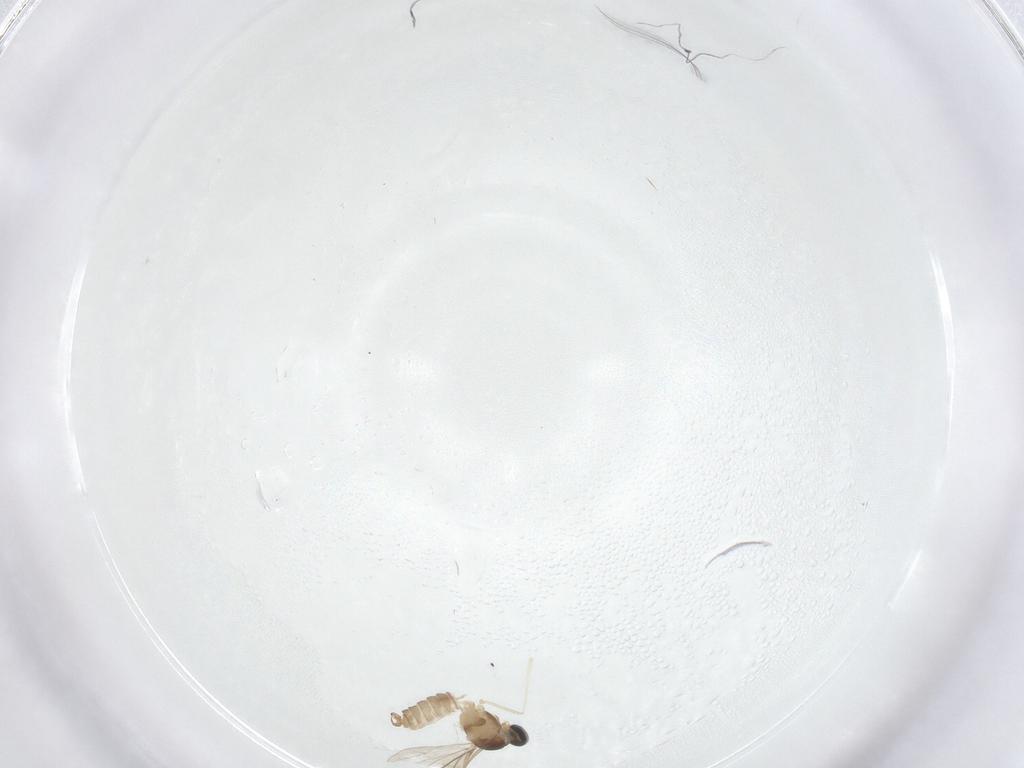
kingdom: Animalia
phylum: Arthropoda
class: Insecta
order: Diptera
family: Cecidomyiidae
